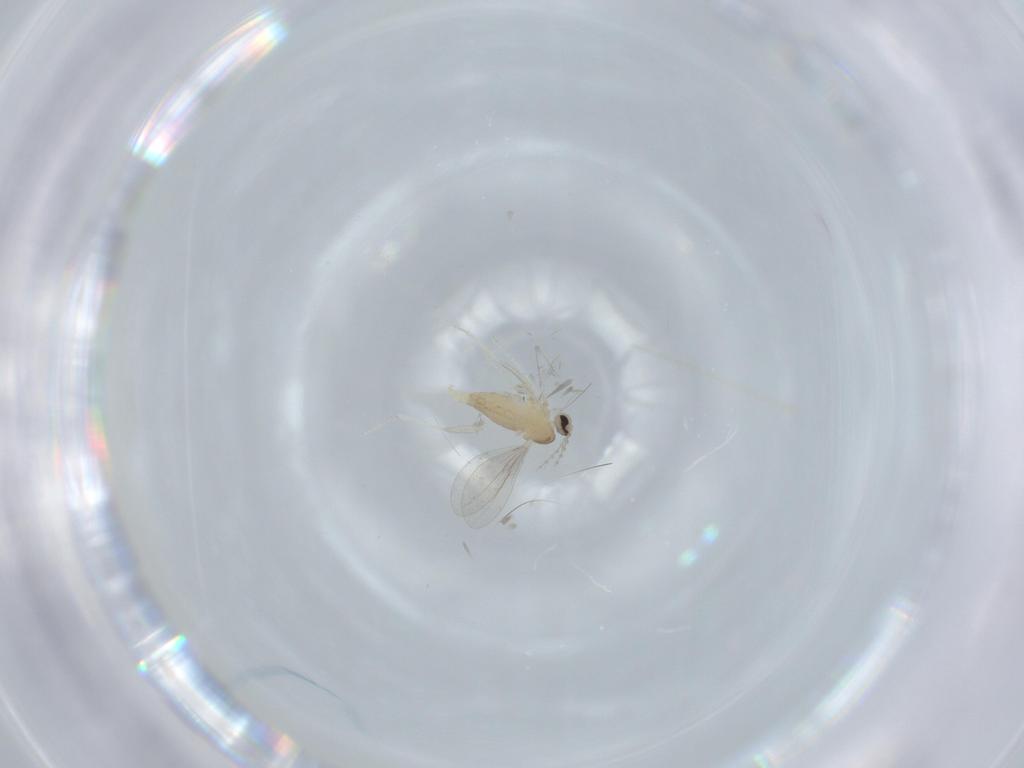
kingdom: Animalia
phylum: Arthropoda
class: Insecta
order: Diptera
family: Cecidomyiidae
